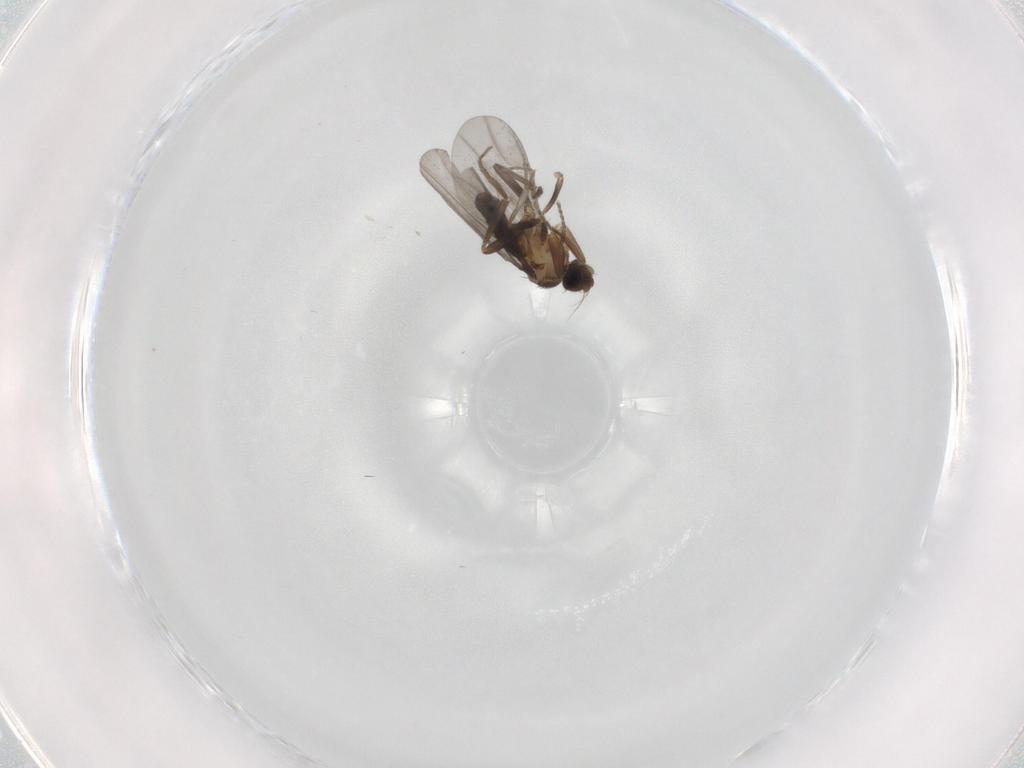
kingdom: Animalia
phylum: Arthropoda
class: Insecta
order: Diptera
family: Phoridae
